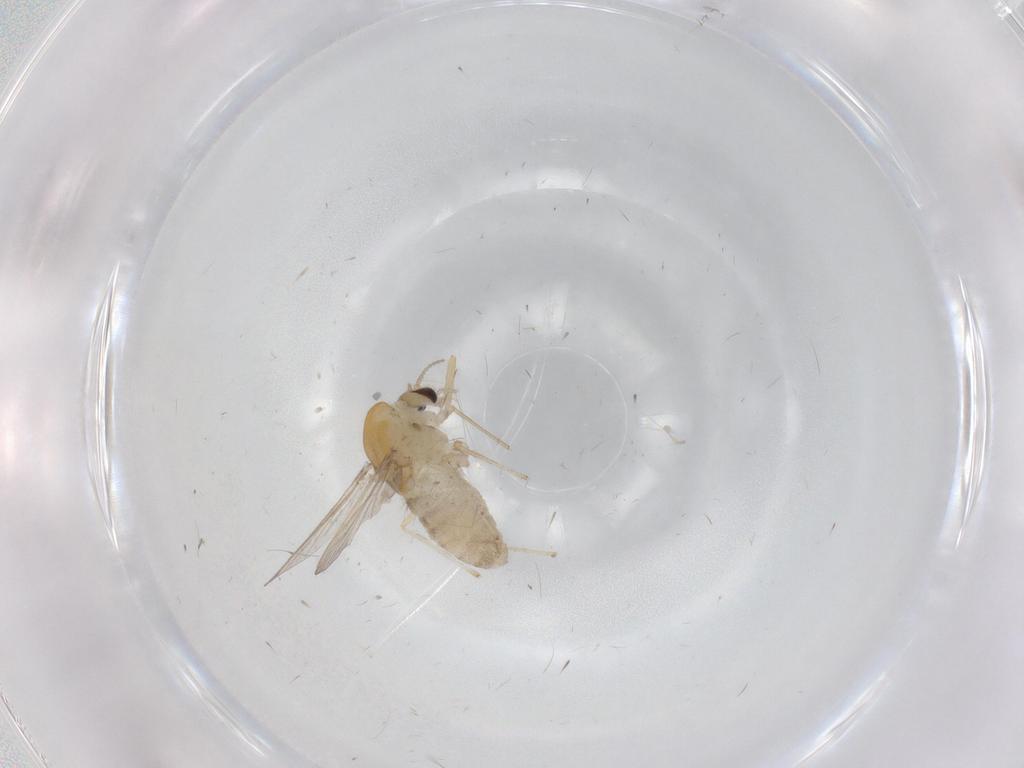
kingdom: Animalia
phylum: Arthropoda
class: Insecta
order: Diptera
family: Chironomidae
